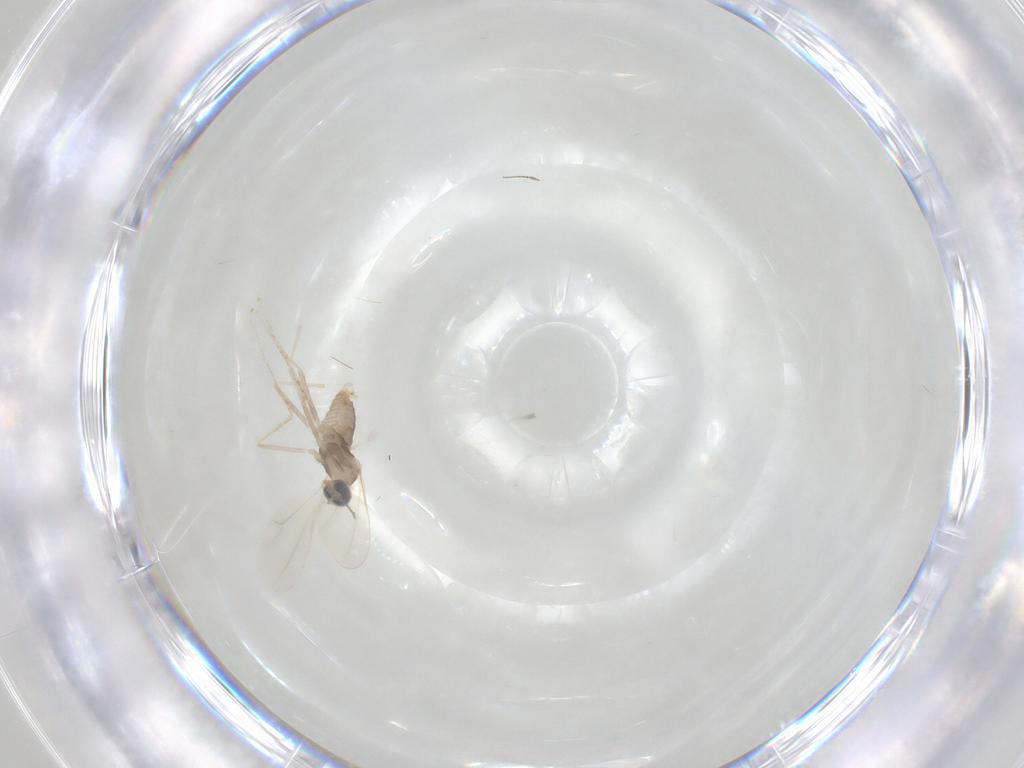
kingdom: Animalia
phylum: Arthropoda
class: Insecta
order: Diptera
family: Cecidomyiidae
